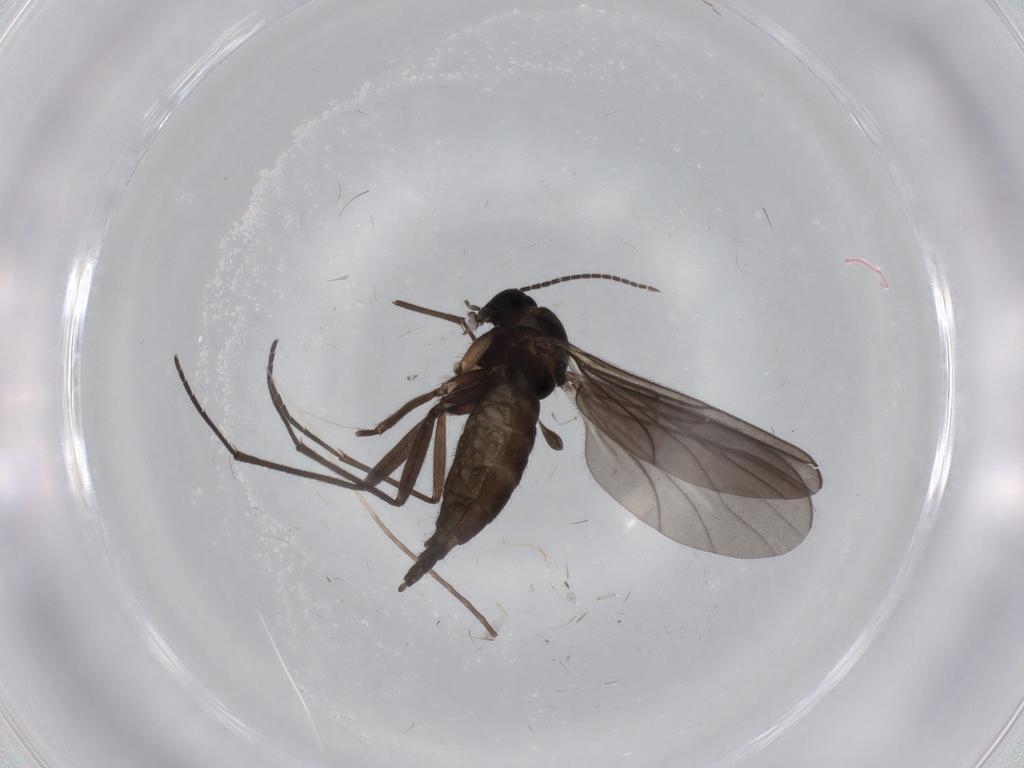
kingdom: Animalia
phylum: Arthropoda
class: Insecta
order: Diptera
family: Sciaridae
